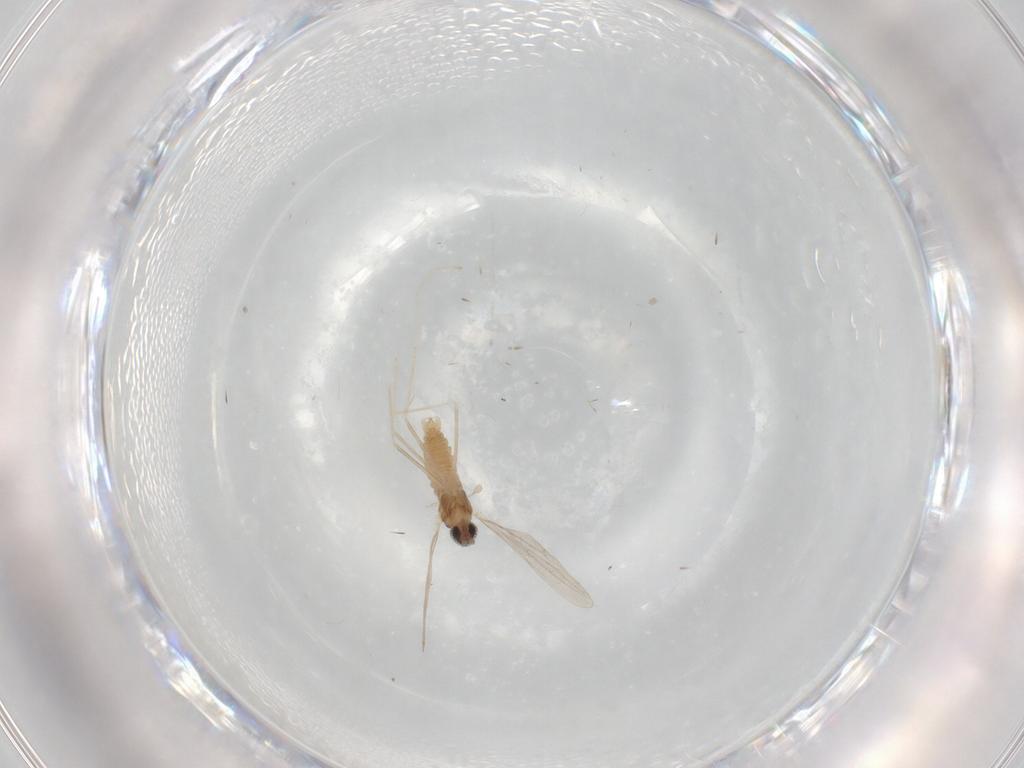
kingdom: Animalia
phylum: Arthropoda
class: Insecta
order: Diptera
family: Cecidomyiidae
